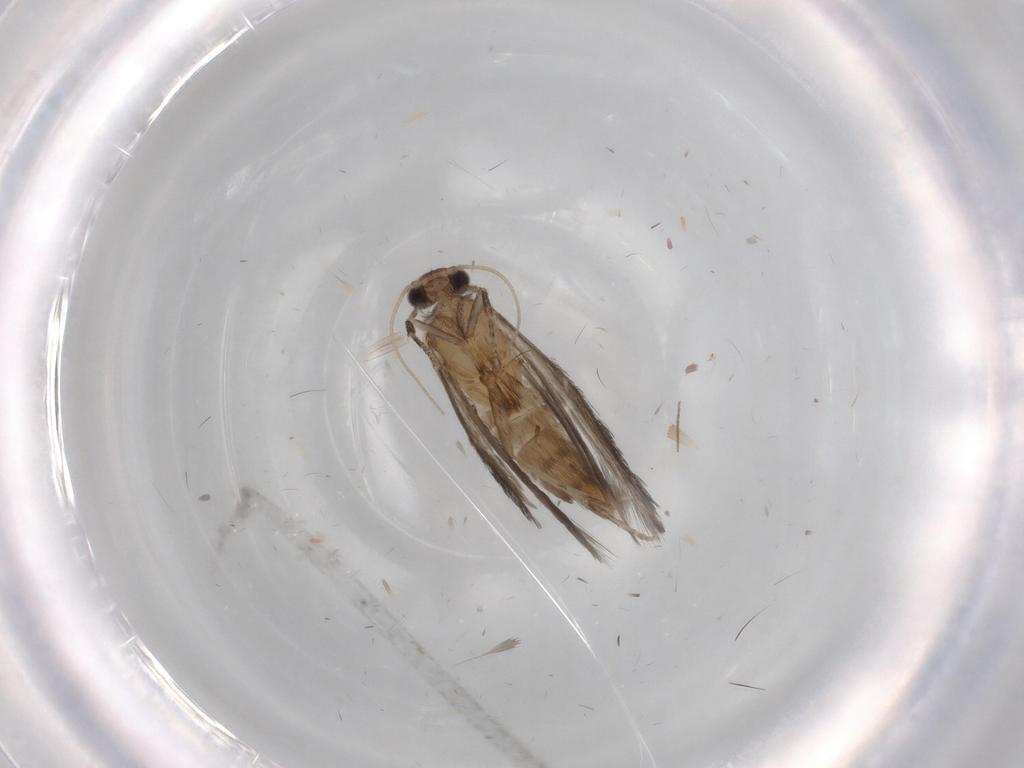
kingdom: Animalia
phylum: Arthropoda
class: Insecta
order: Trichoptera
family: Hydroptilidae
